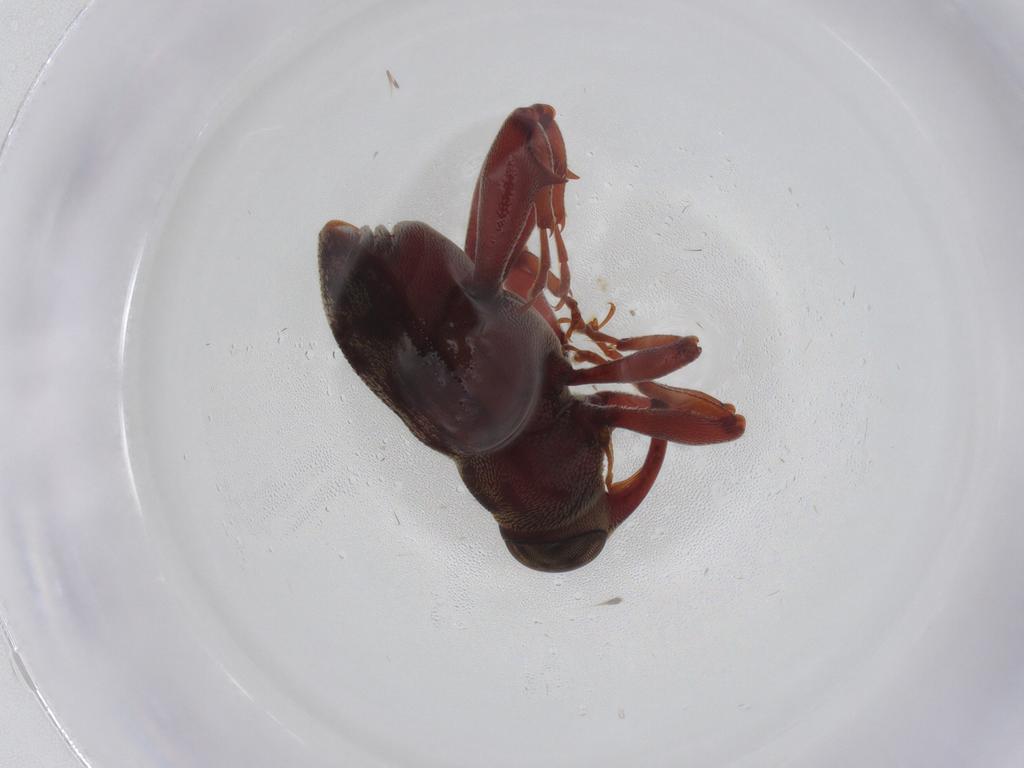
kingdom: Animalia
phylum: Arthropoda
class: Insecta
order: Coleoptera
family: Curculionidae
